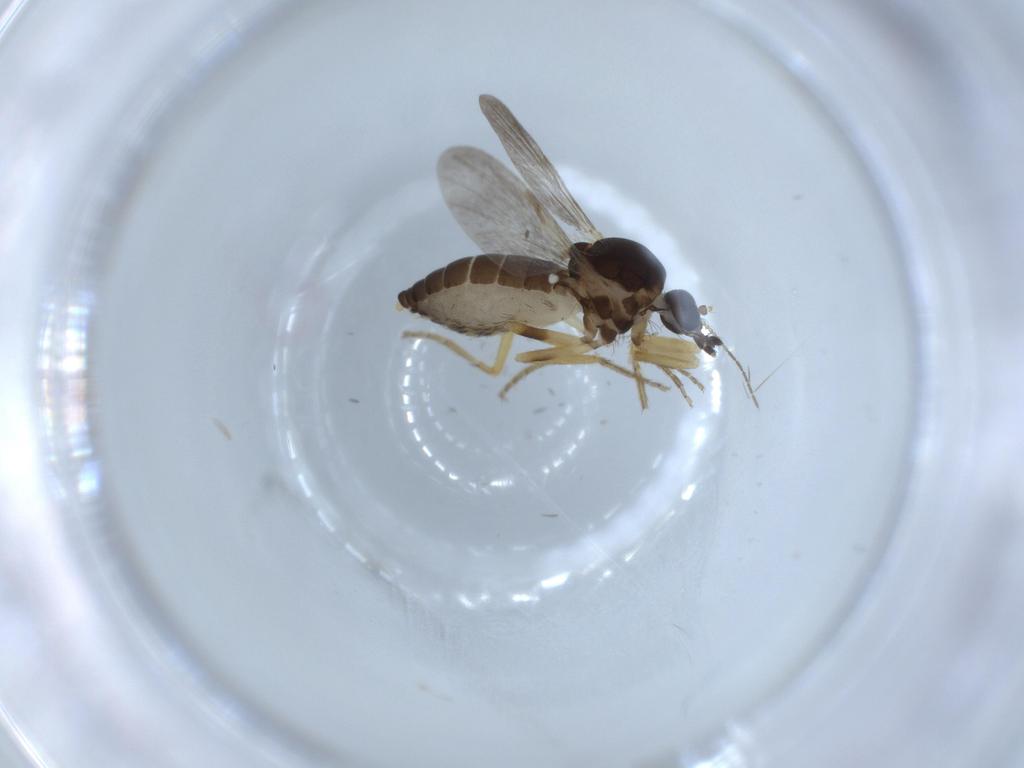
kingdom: Animalia
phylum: Arthropoda
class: Insecta
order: Diptera
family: Ceratopogonidae
